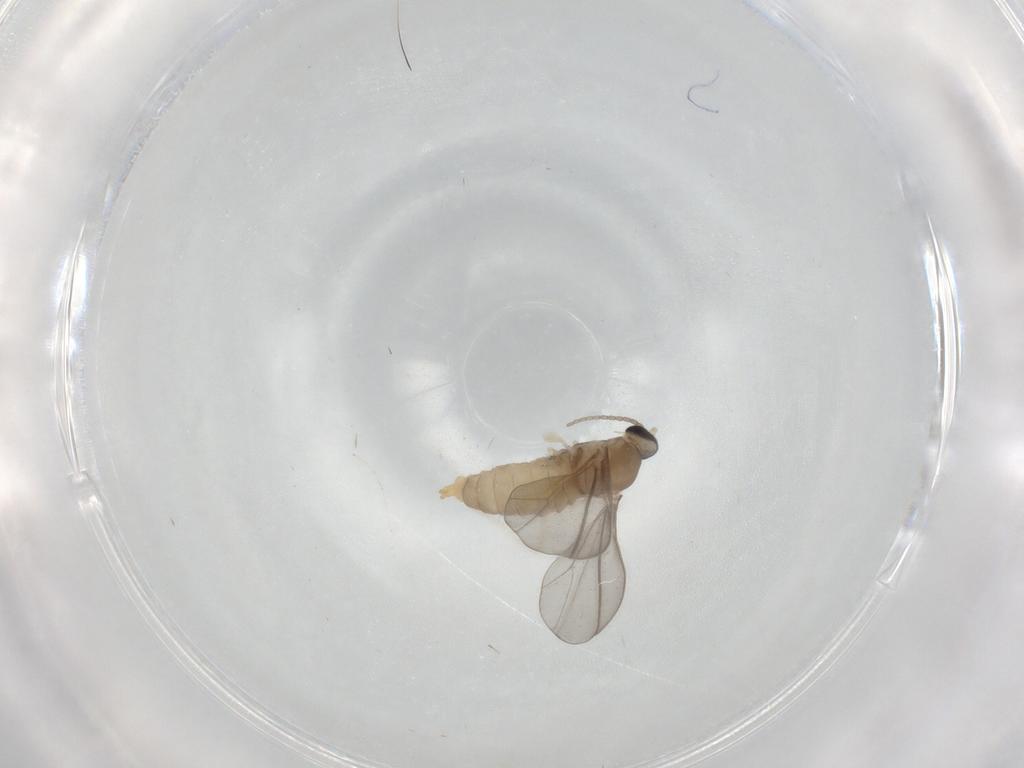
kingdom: Animalia
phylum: Arthropoda
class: Insecta
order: Diptera
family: Cecidomyiidae
